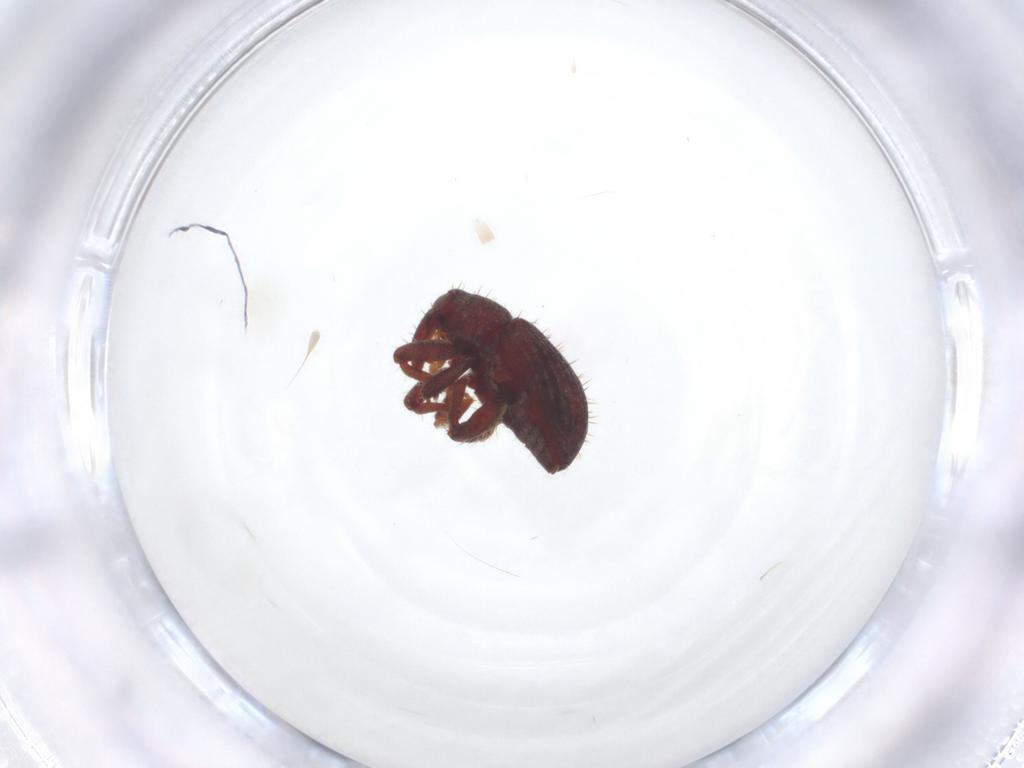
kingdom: Animalia
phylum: Arthropoda
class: Insecta
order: Coleoptera
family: Curculionidae
